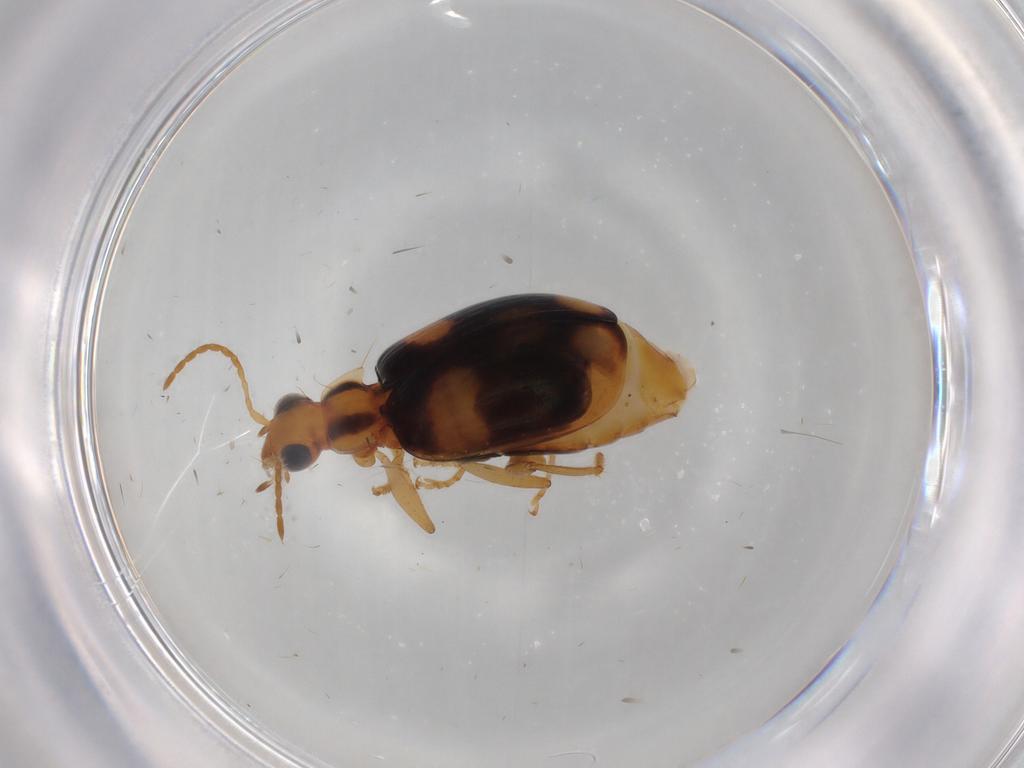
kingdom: Animalia
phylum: Arthropoda
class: Insecta
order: Coleoptera
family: Carabidae
